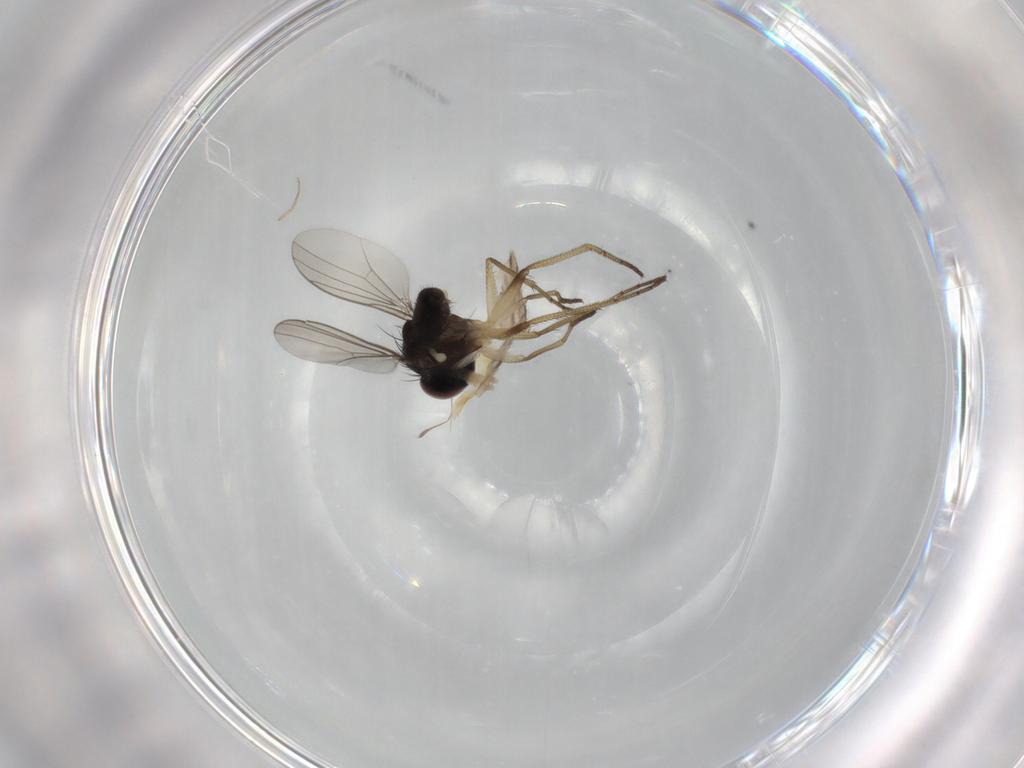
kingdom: Animalia
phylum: Arthropoda
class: Insecta
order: Diptera
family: Dolichopodidae
